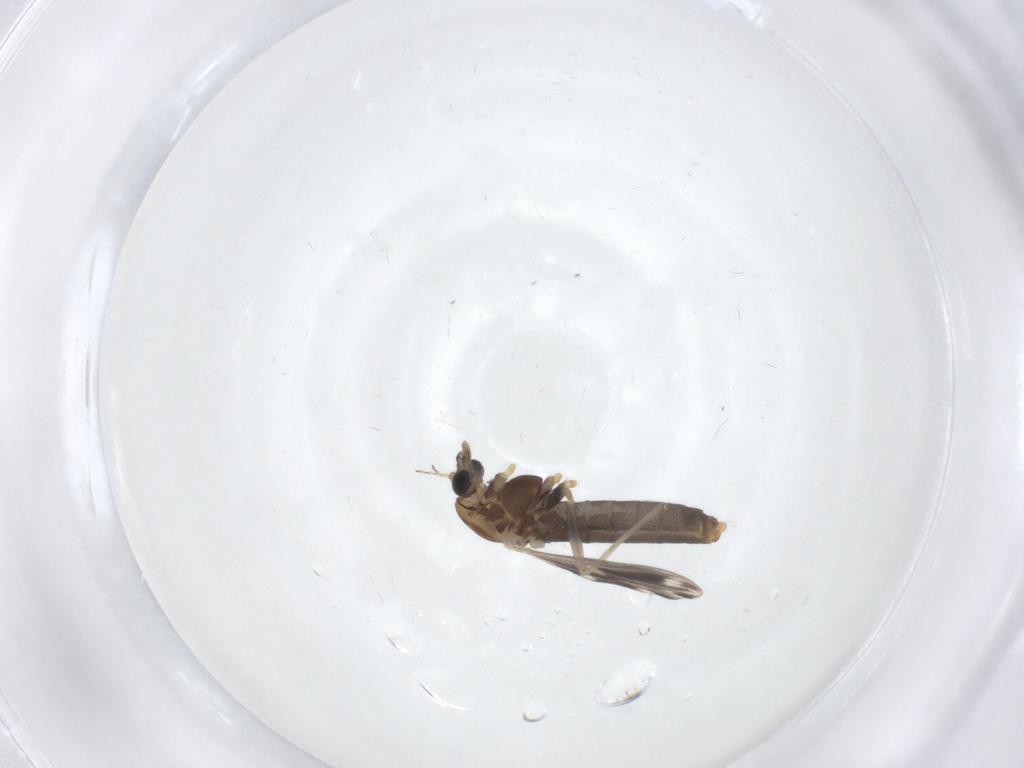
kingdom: Animalia
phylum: Arthropoda
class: Insecta
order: Diptera
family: Chironomidae
